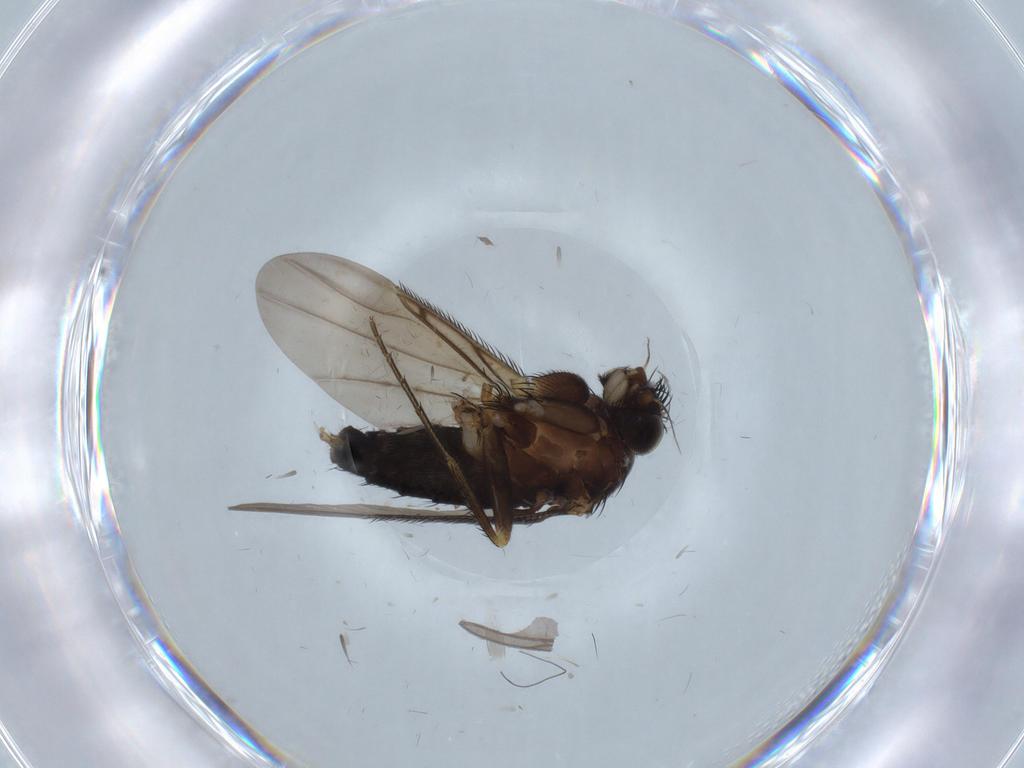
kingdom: Animalia
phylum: Arthropoda
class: Insecta
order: Diptera
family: Phoridae
